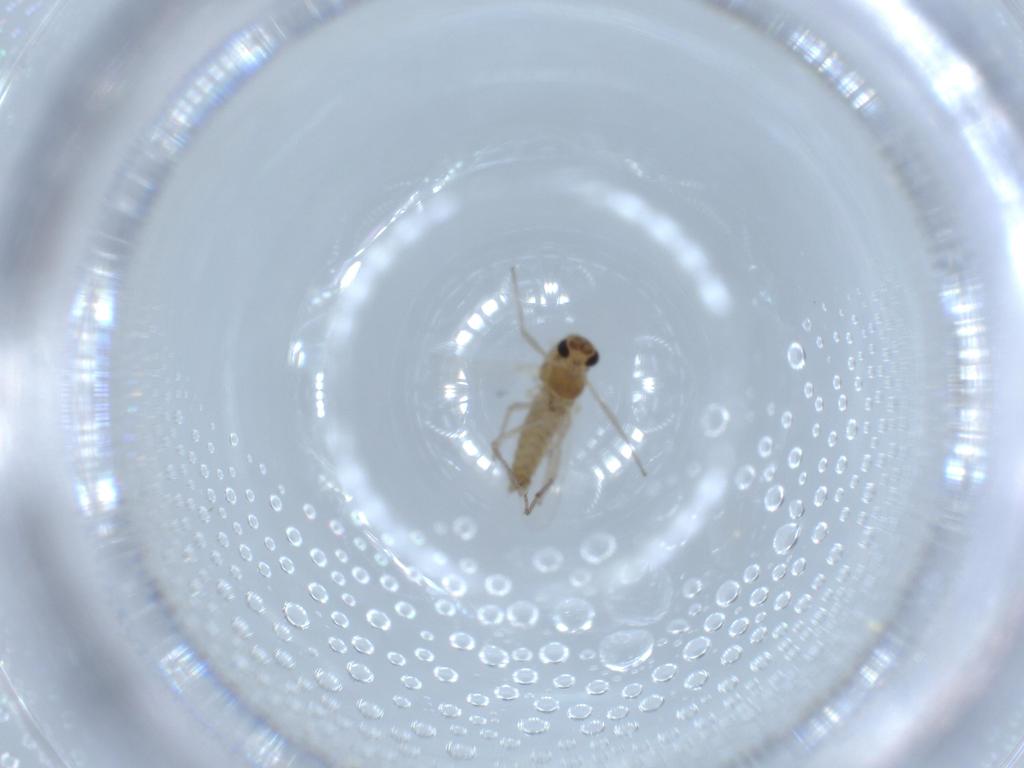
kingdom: Animalia
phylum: Arthropoda
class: Insecta
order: Diptera
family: Chironomidae
